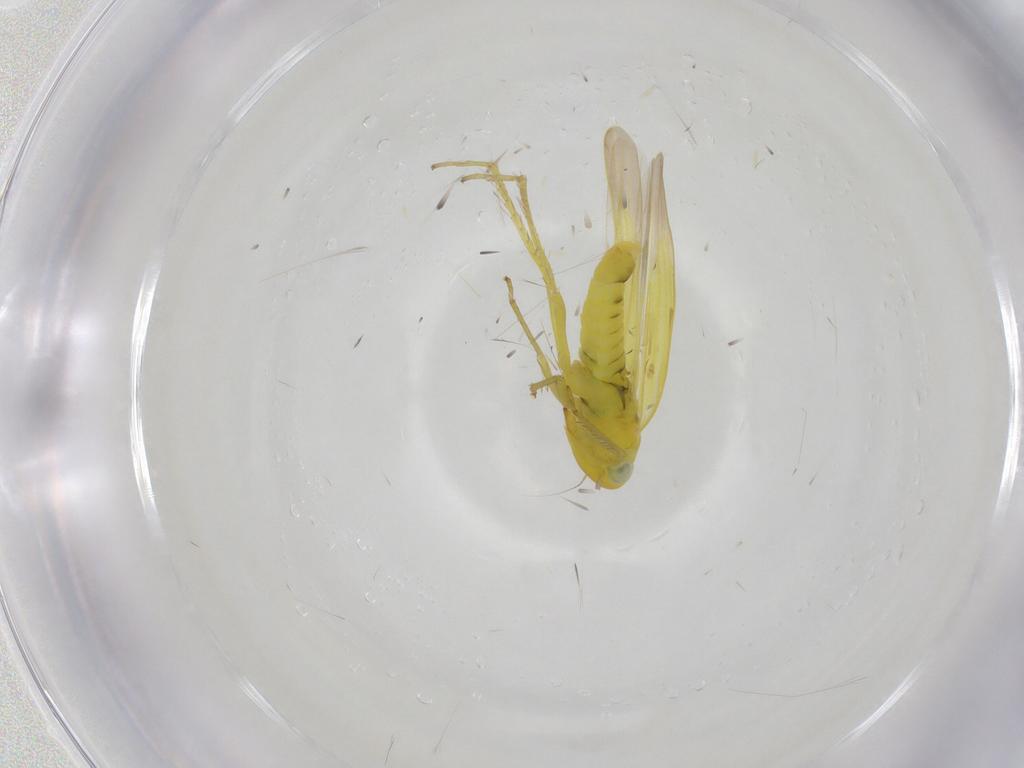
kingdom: Animalia
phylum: Arthropoda
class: Insecta
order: Hemiptera
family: Cicadellidae
